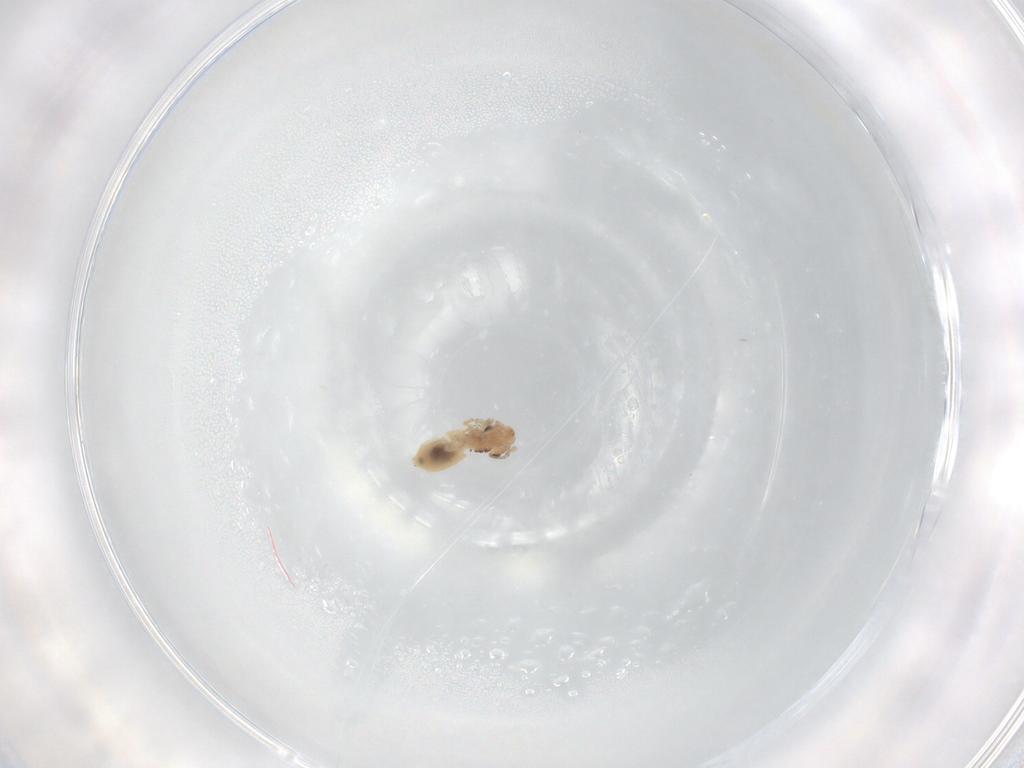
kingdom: Animalia
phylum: Arthropoda
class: Insecta
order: Psocodea
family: Lepidopsocidae
